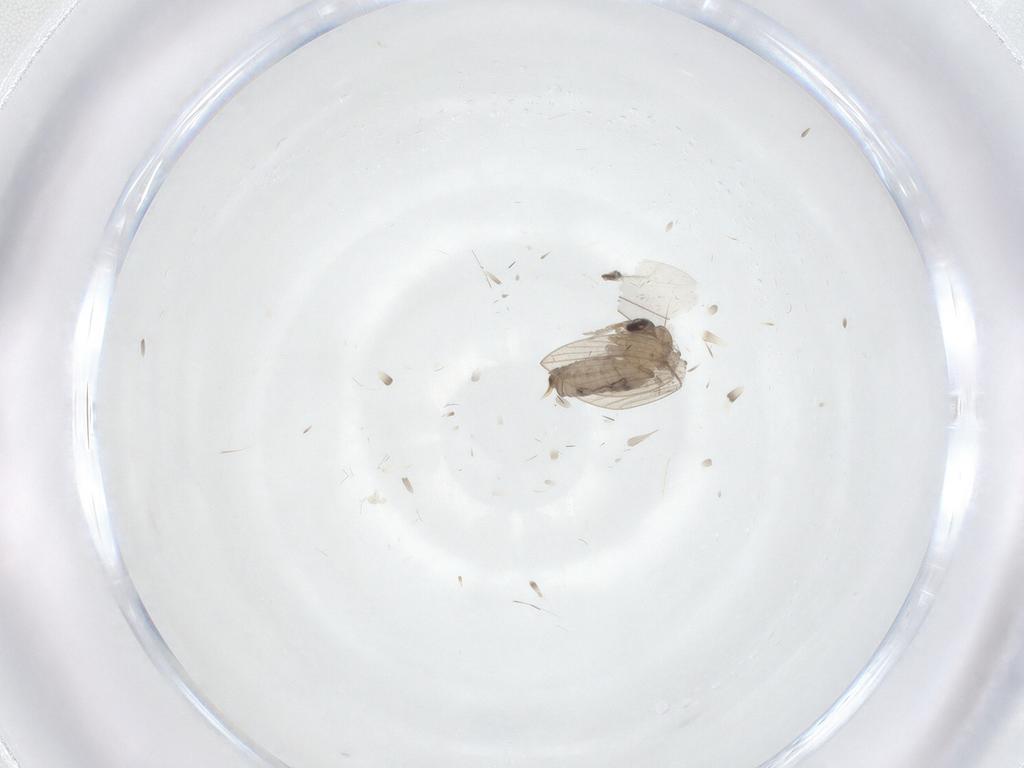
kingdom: Animalia
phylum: Arthropoda
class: Insecta
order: Diptera
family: Psychodidae
